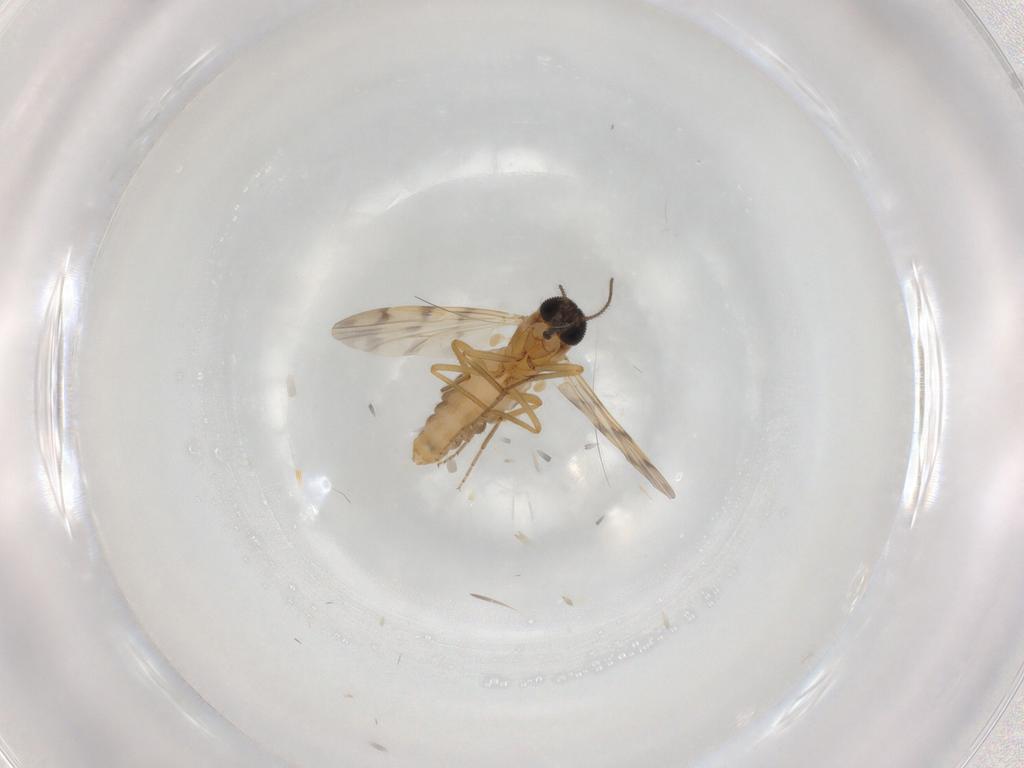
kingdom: Animalia
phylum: Arthropoda
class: Insecta
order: Diptera
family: Ceratopogonidae
